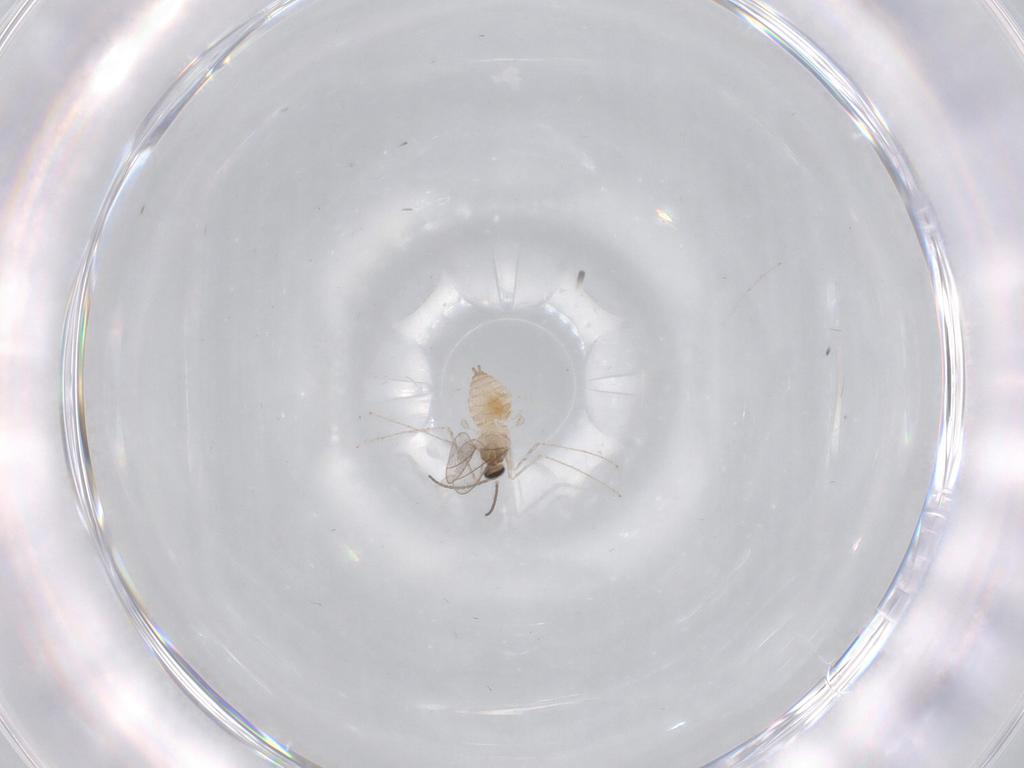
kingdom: Animalia
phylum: Arthropoda
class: Insecta
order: Diptera
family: Cecidomyiidae
